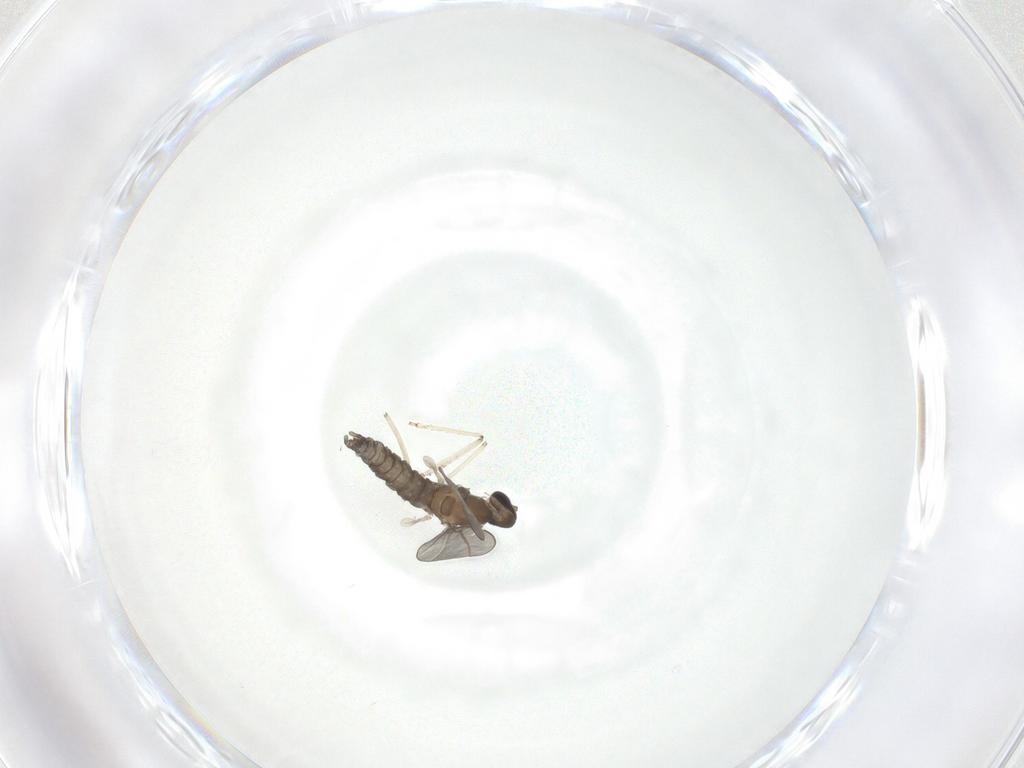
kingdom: Animalia
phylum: Arthropoda
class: Insecta
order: Diptera
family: Cecidomyiidae
